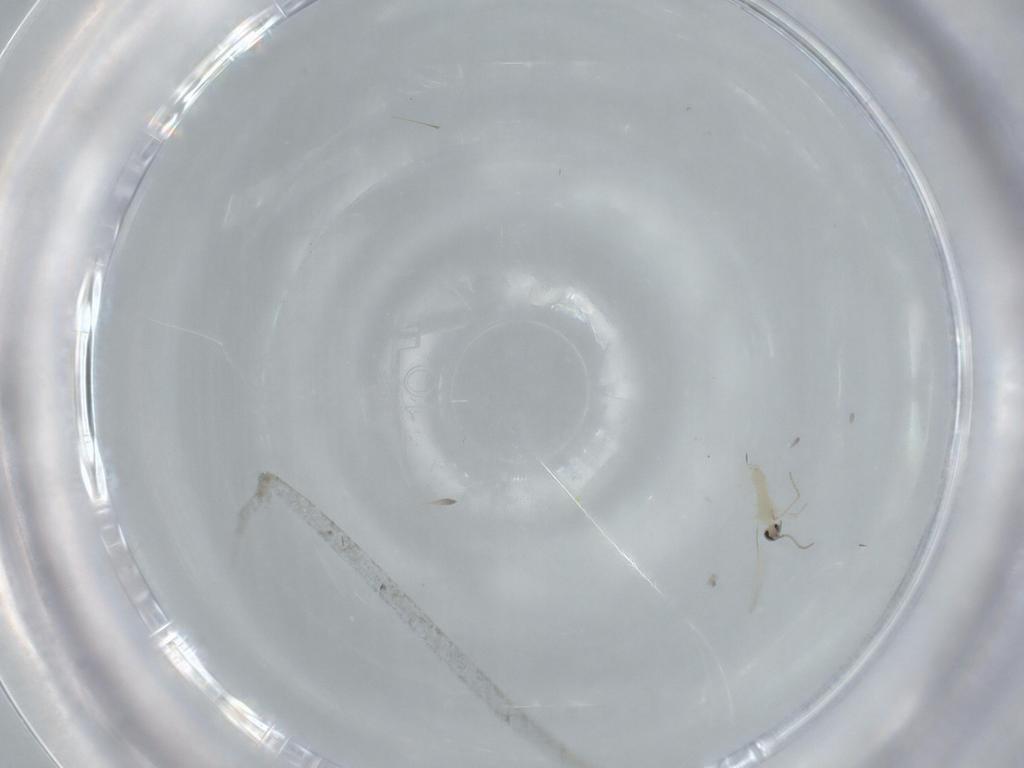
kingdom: Animalia
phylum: Arthropoda
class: Insecta
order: Diptera
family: Cecidomyiidae
